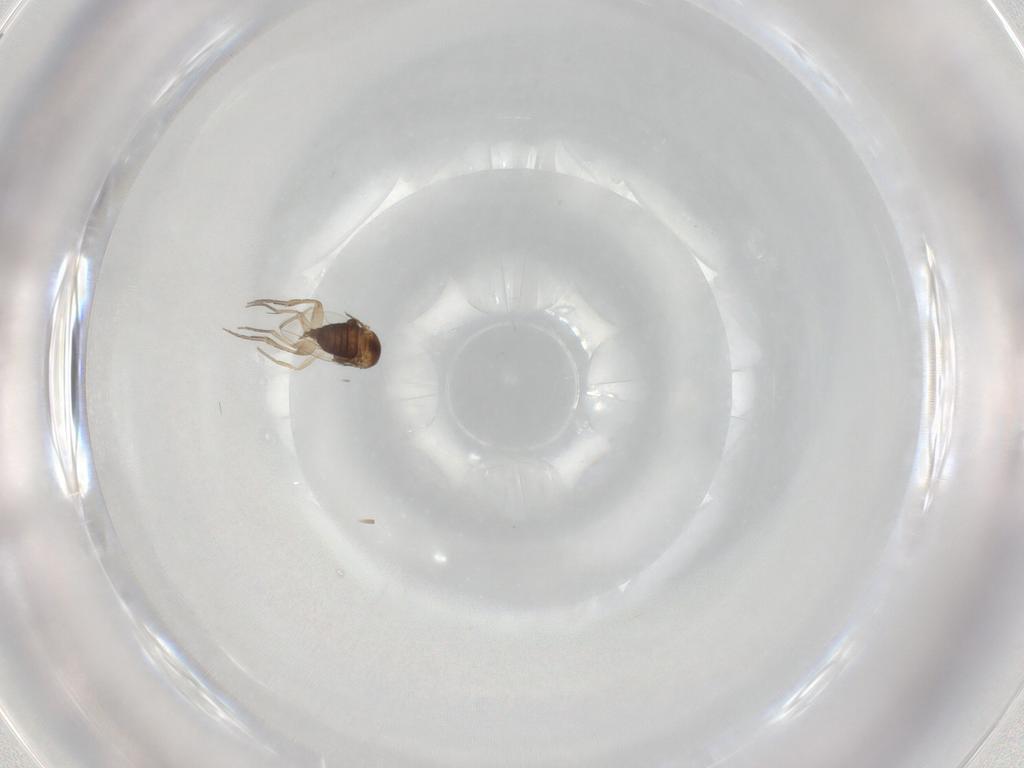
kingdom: Animalia
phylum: Arthropoda
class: Insecta
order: Diptera
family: Phoridae
